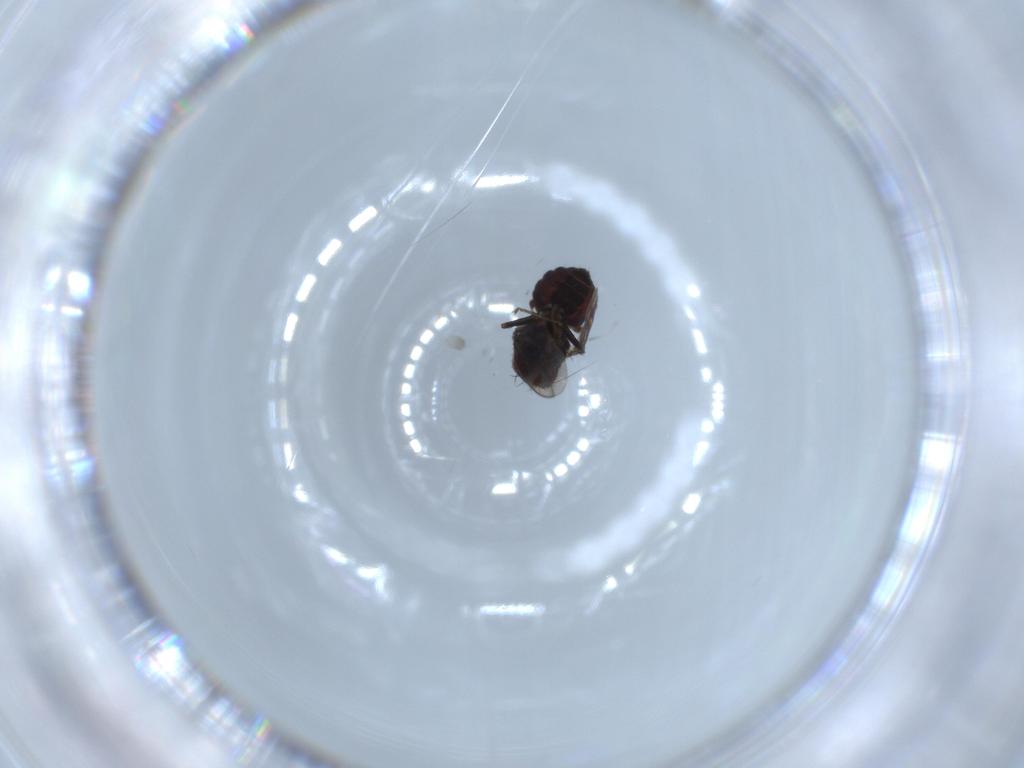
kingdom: Animalia
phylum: Arthropoda
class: Insecta
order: Diptera
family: Sphaeroceridae
